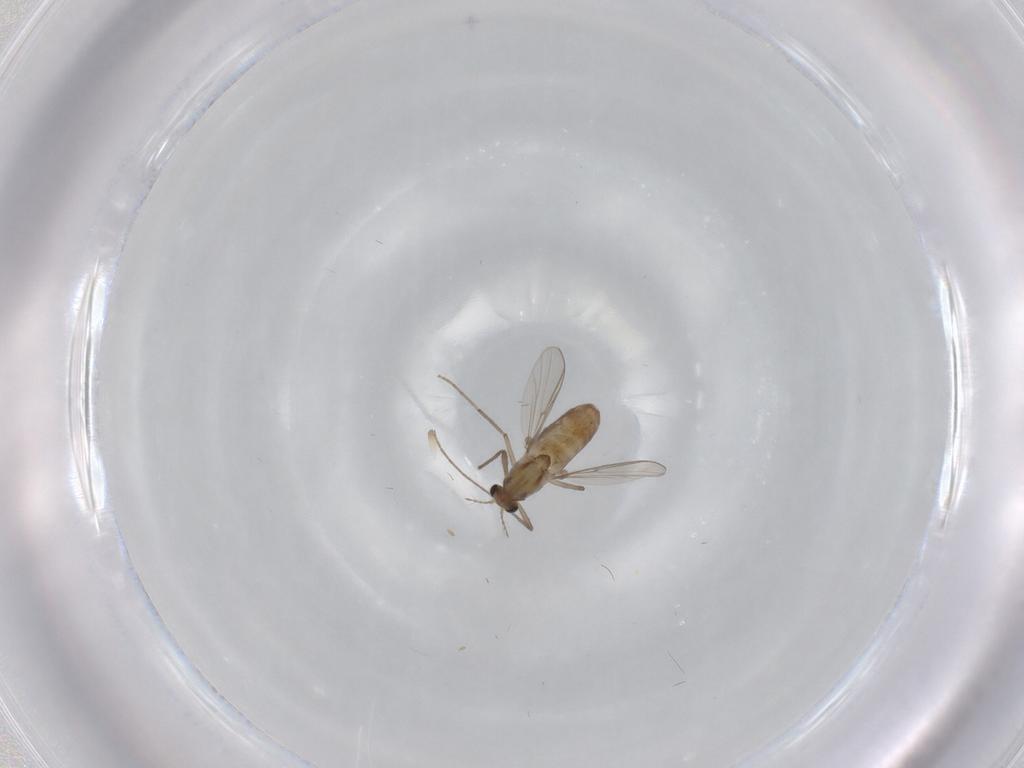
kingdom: Animalia
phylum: Arthropoda
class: Insecta
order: Diptera
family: Chironomidae
